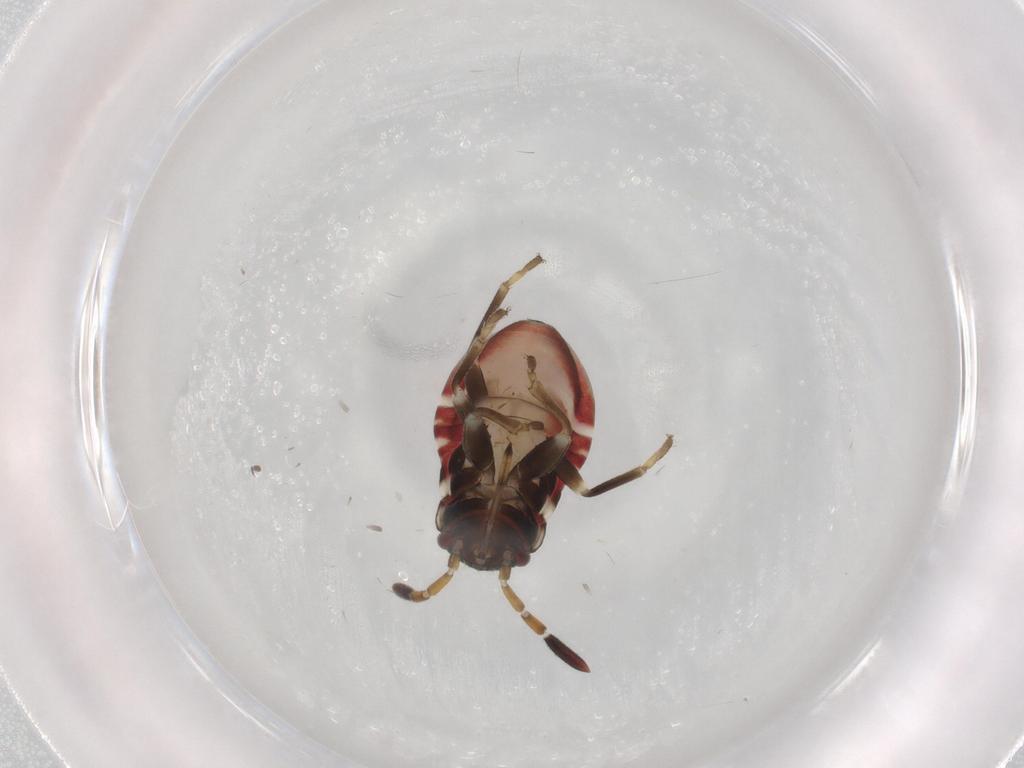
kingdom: Animalia
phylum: Arthropoda
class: Insecta
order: Hemiptera
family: Rhyparochromidae
